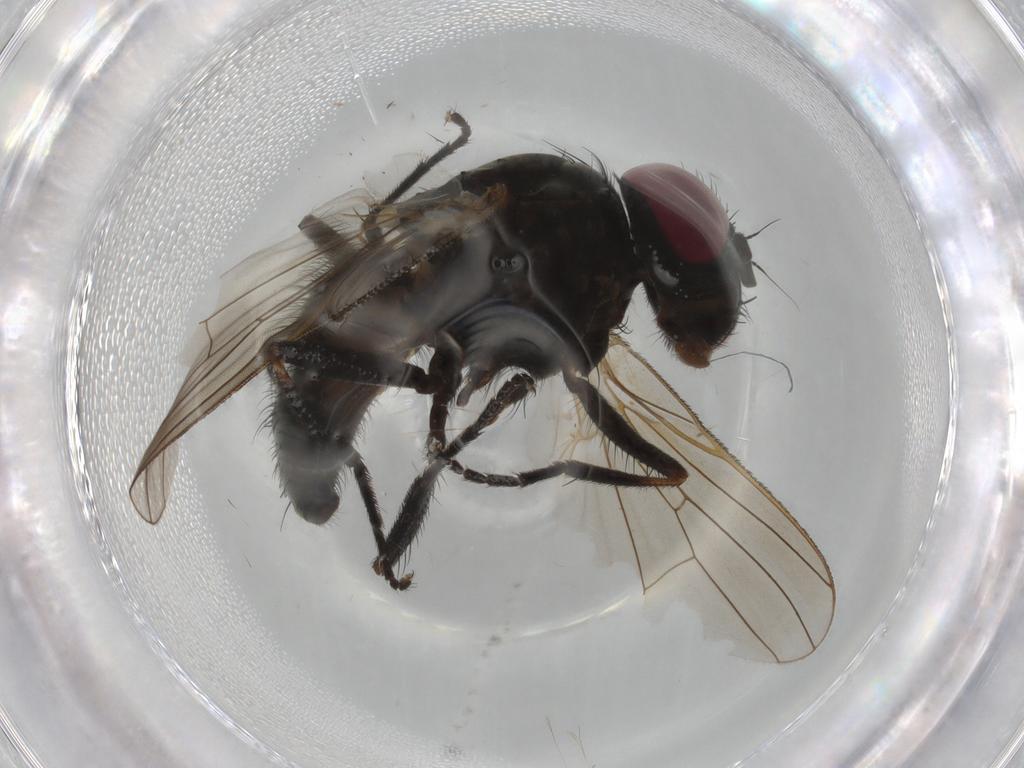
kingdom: Animalia
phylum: Arthropoda
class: Insecta
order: Diptera
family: Phoridae
